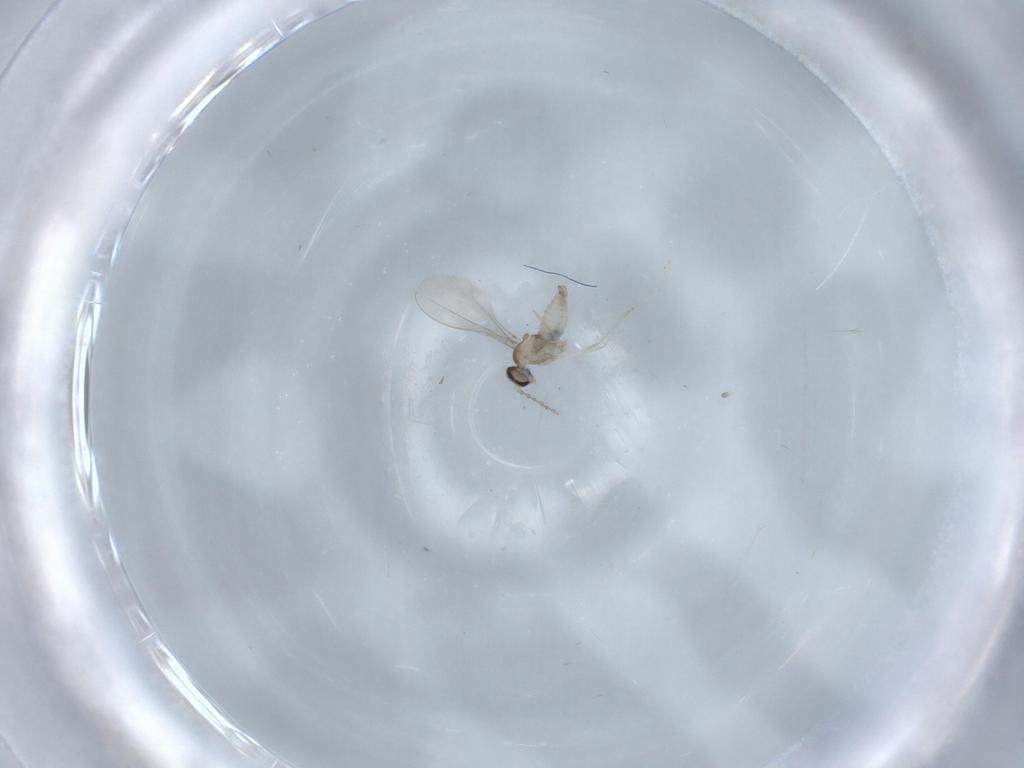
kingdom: Animalia
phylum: Arthropoda
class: Insecta
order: Diptera
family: Cecidomyiidae
